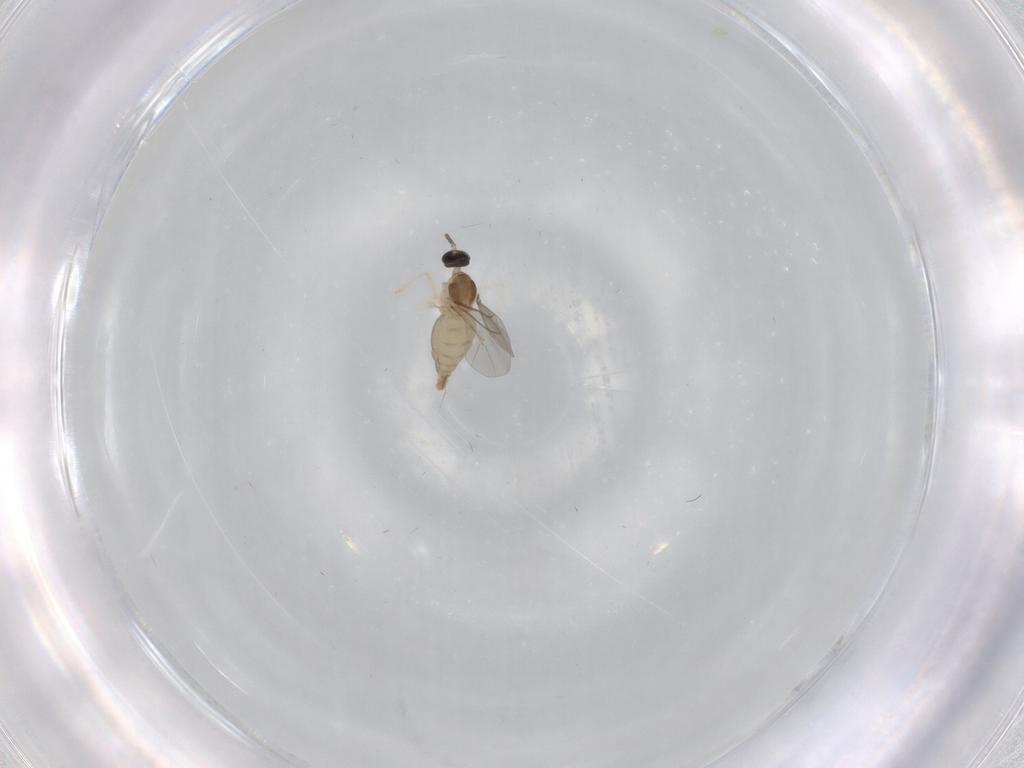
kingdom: Animalia
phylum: Arthropoda
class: Insecta
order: Diptera
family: Cecidomyiidae
